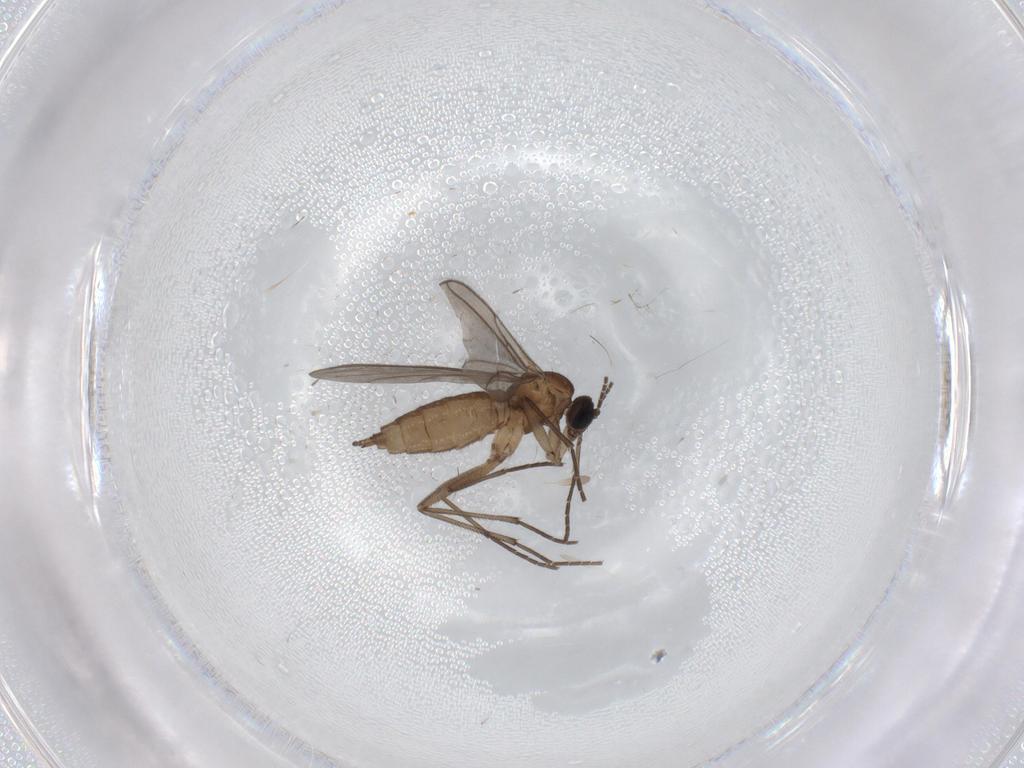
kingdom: Animalia
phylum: Arthropoda
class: Insecta
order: Diptera
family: Sciaridae
